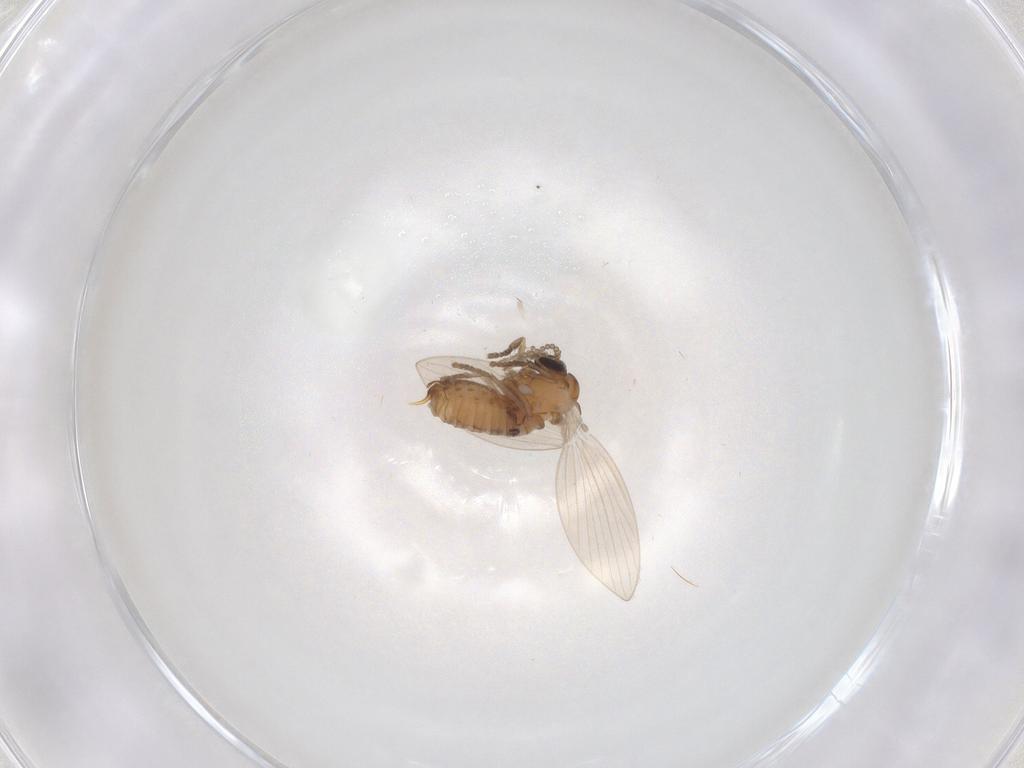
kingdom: Animalia
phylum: Arthropoda
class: Insecta
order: Diptera
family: Psychodidae
